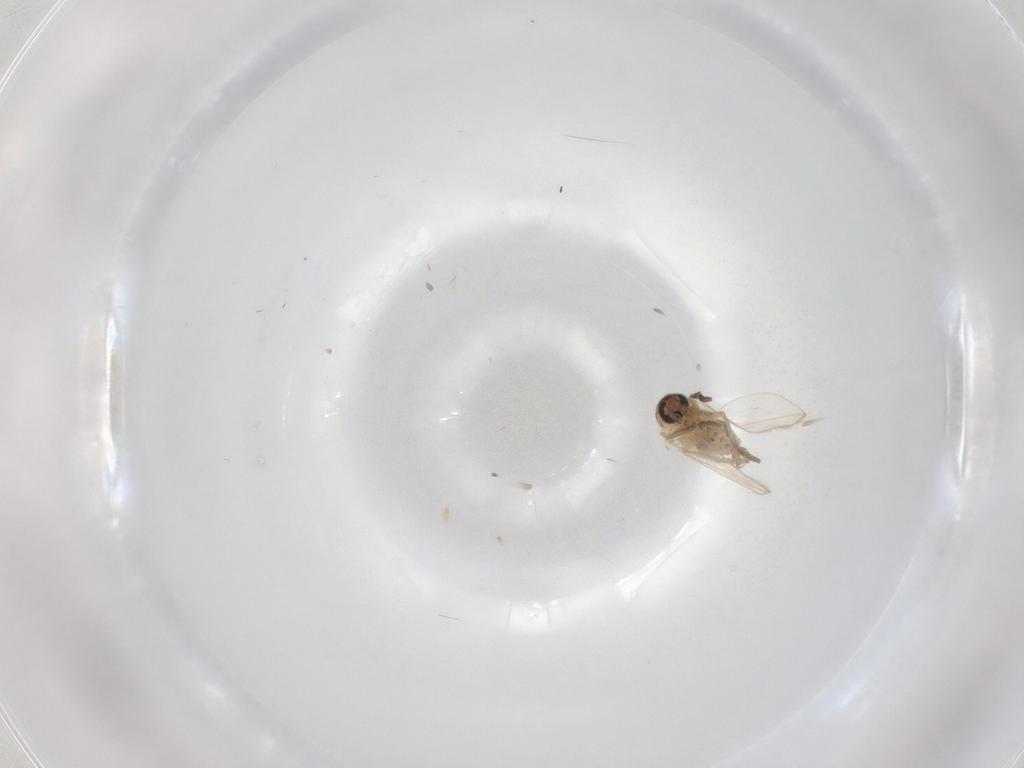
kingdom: Animalia
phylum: Arthropoda
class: Insecta
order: Diptera
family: Psychodidae
